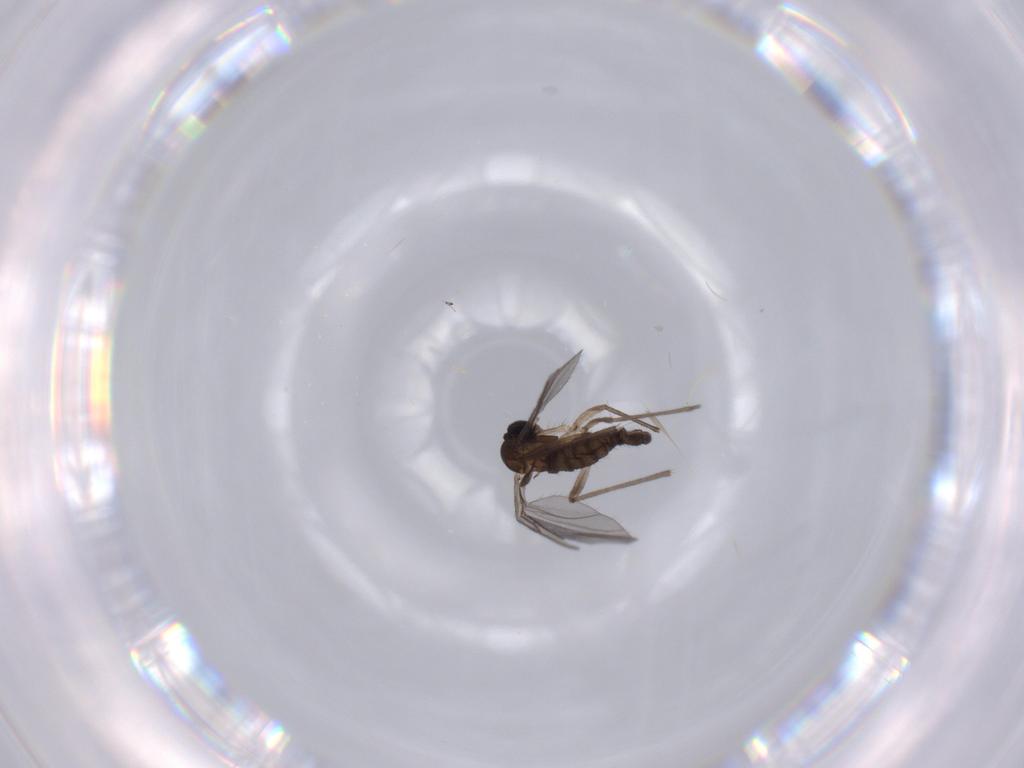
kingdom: Animalia
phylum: Arthropoda
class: Insecta
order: Diptera
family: Sciaridae
